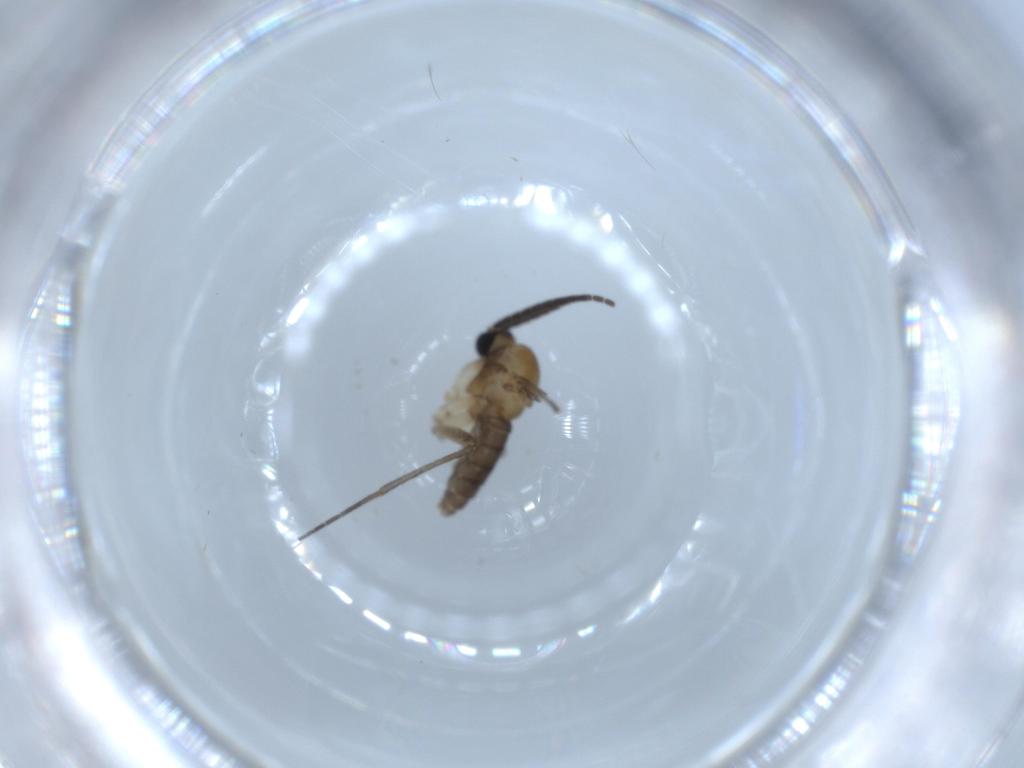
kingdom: Animalia
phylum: Arthropoda
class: Insecta
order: Diptera
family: Sciaridae
